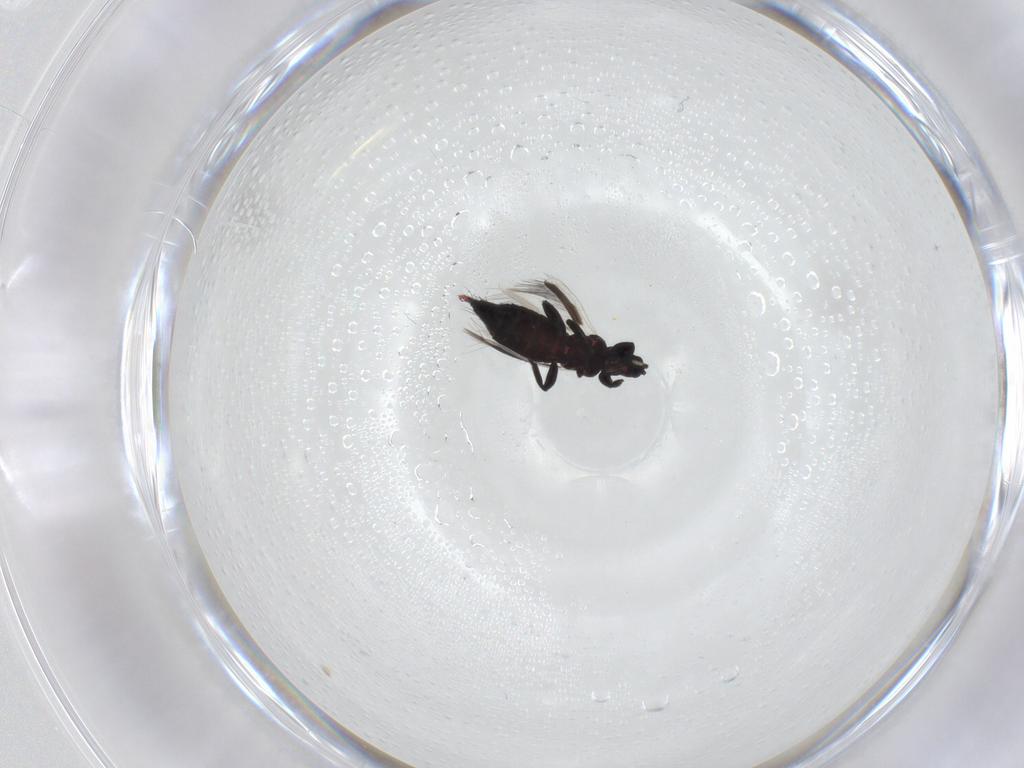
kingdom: Animalia
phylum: Arthropoda
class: Insecta
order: Thysanoptera
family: Aeolothripidae
